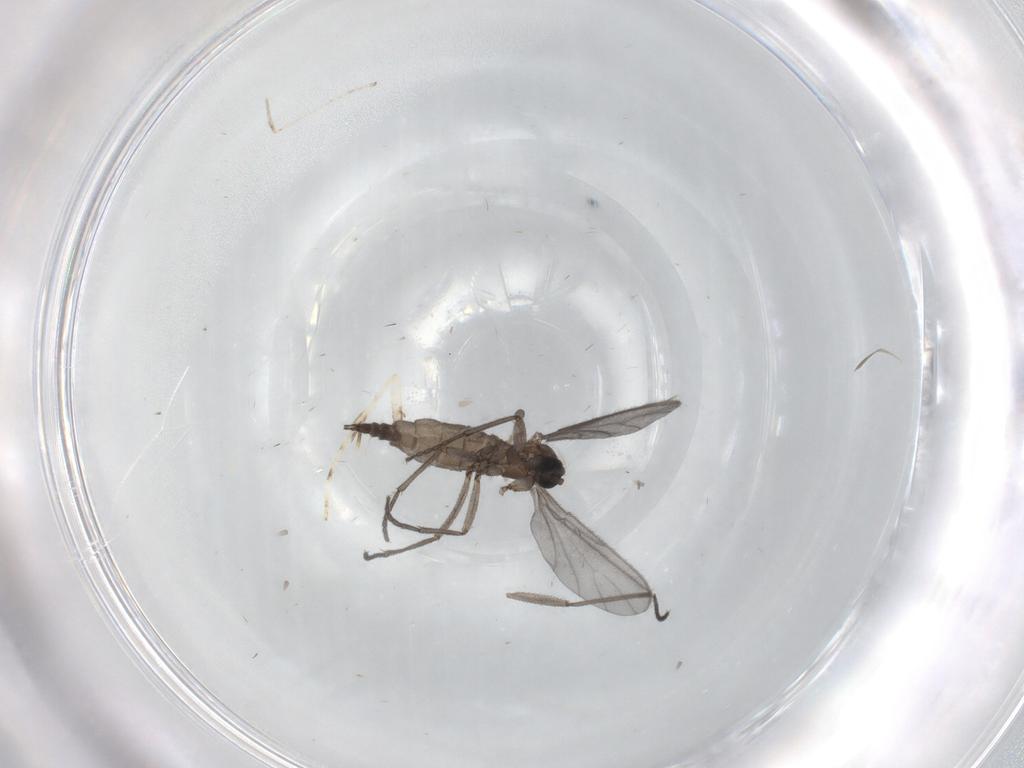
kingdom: Animalia
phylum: Arthropoda
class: Insecta
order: Diptera
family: Sciaridae
